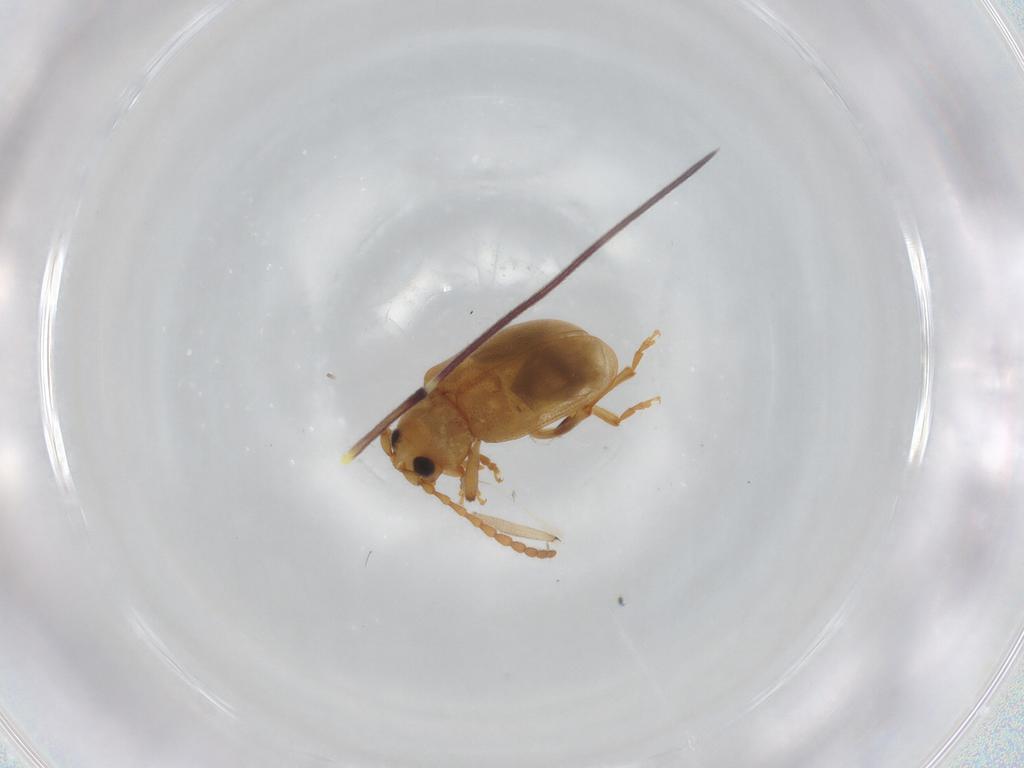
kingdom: Animalia
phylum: Arthropoda
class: Insecta
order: Coleoptera
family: Chrysomelidae
